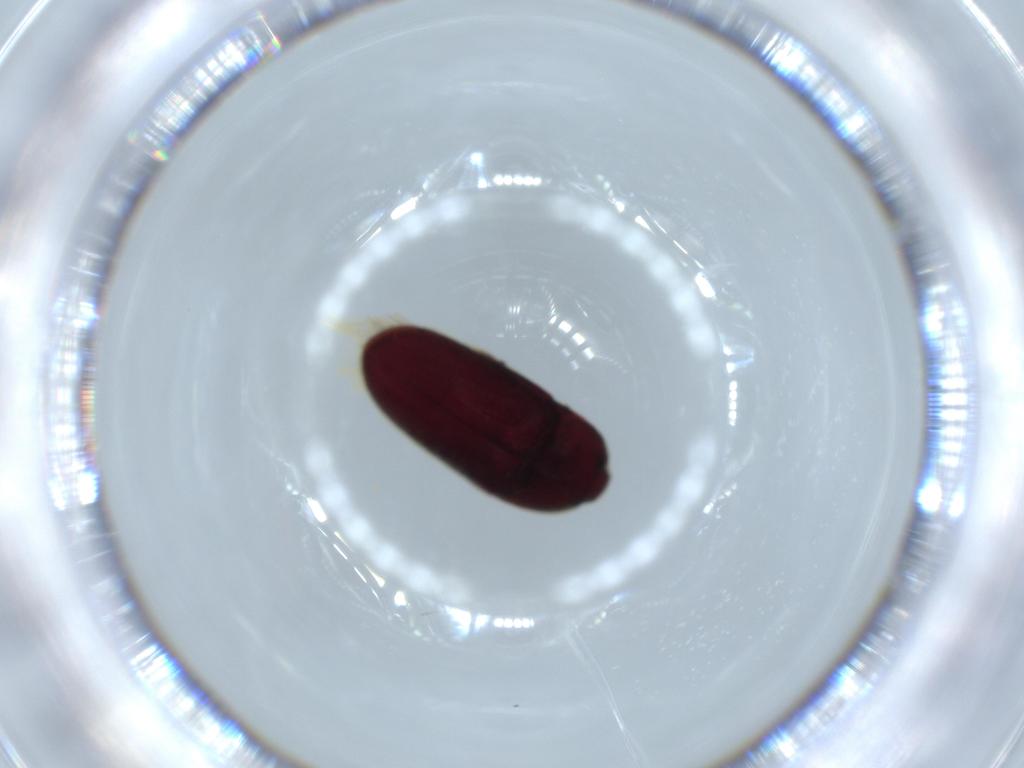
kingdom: Animalia
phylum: Arthropoda
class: Insecta
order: Coleoptera
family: Throscidae
